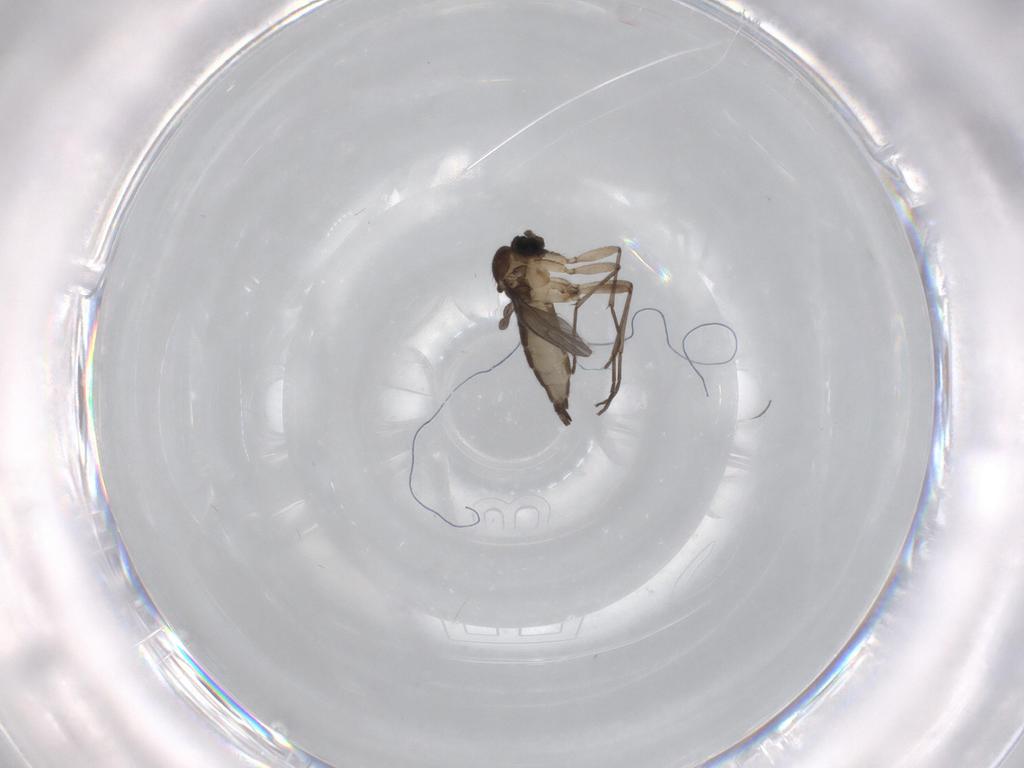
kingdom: Animalia
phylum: Arthropoda
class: Insecta
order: Diptera
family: Sciaridae
